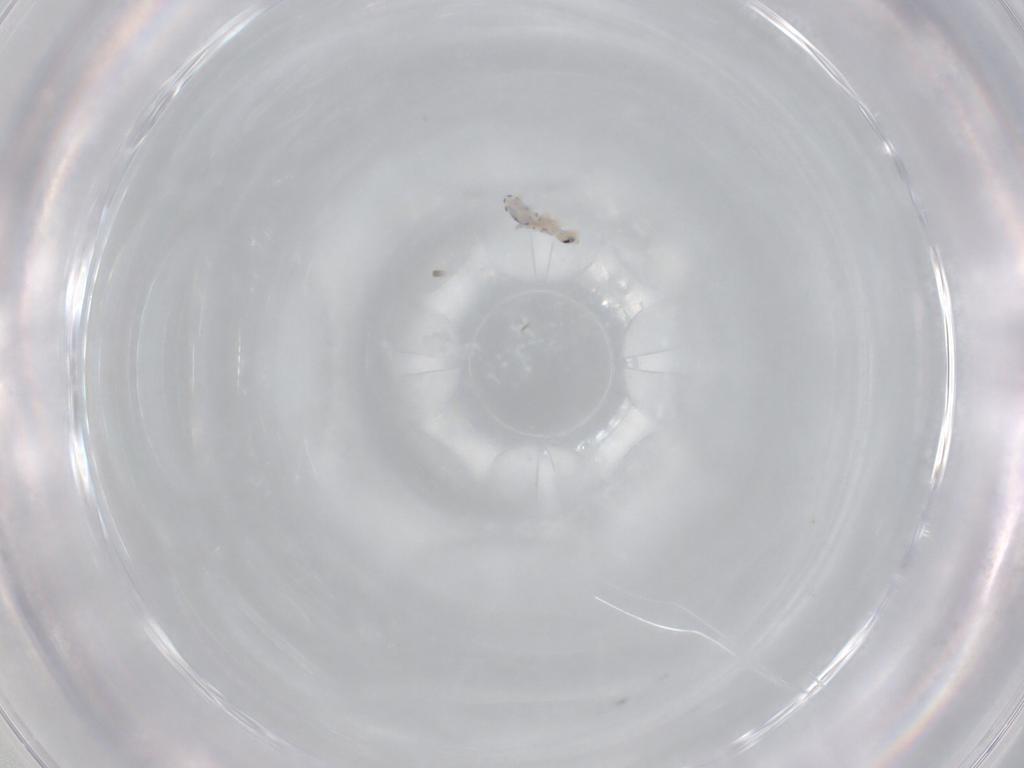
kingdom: Animalia
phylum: Arthropoda
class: Collembola
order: Entomobryomorpha
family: Entomobryidae
